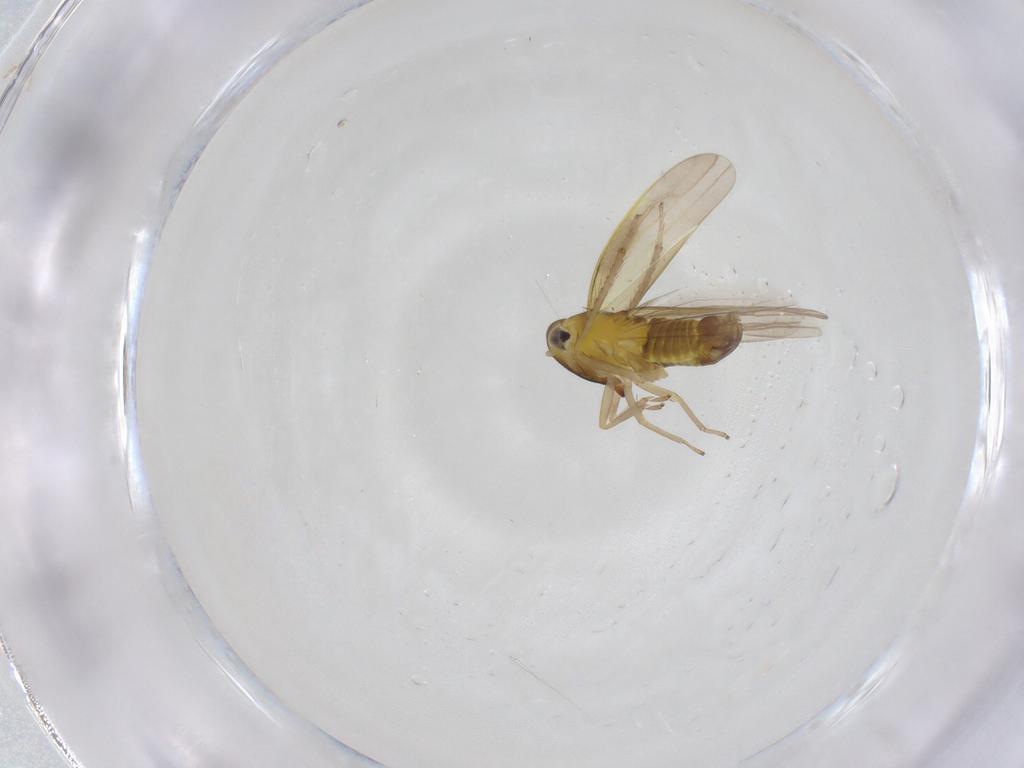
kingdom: Animalia
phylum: Arthropoda
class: Insecta
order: Hemiptera
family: Cicadellidae
